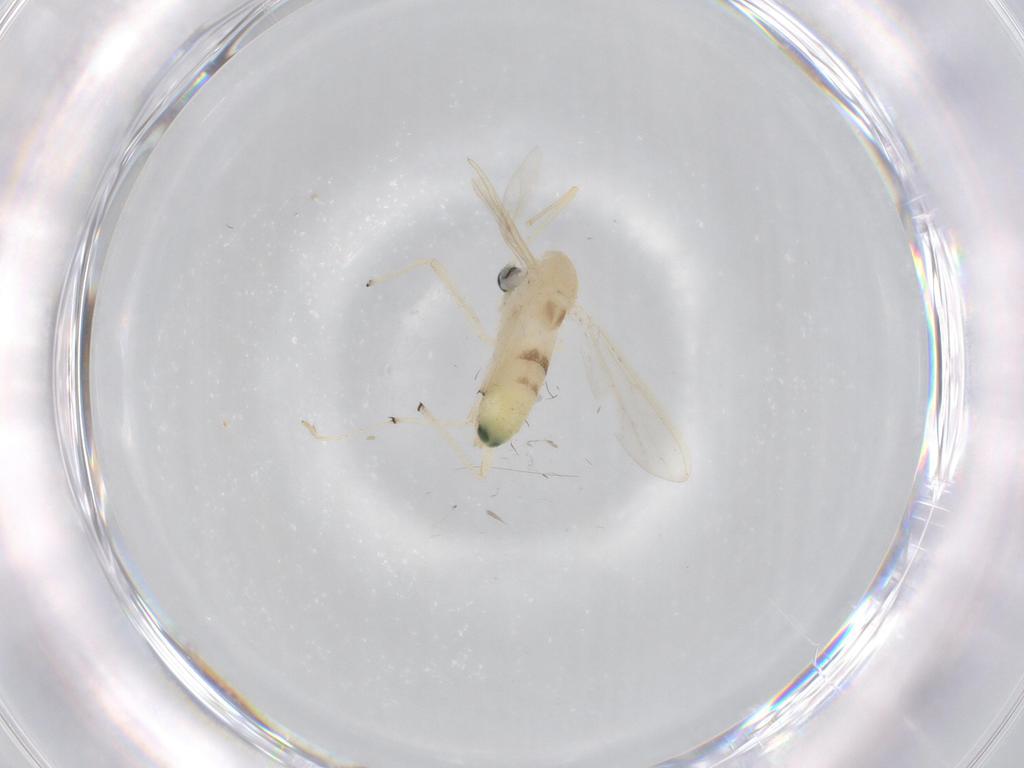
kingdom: Animalia
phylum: Arthropoda
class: Insecta
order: Diptera
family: Chironomidae
